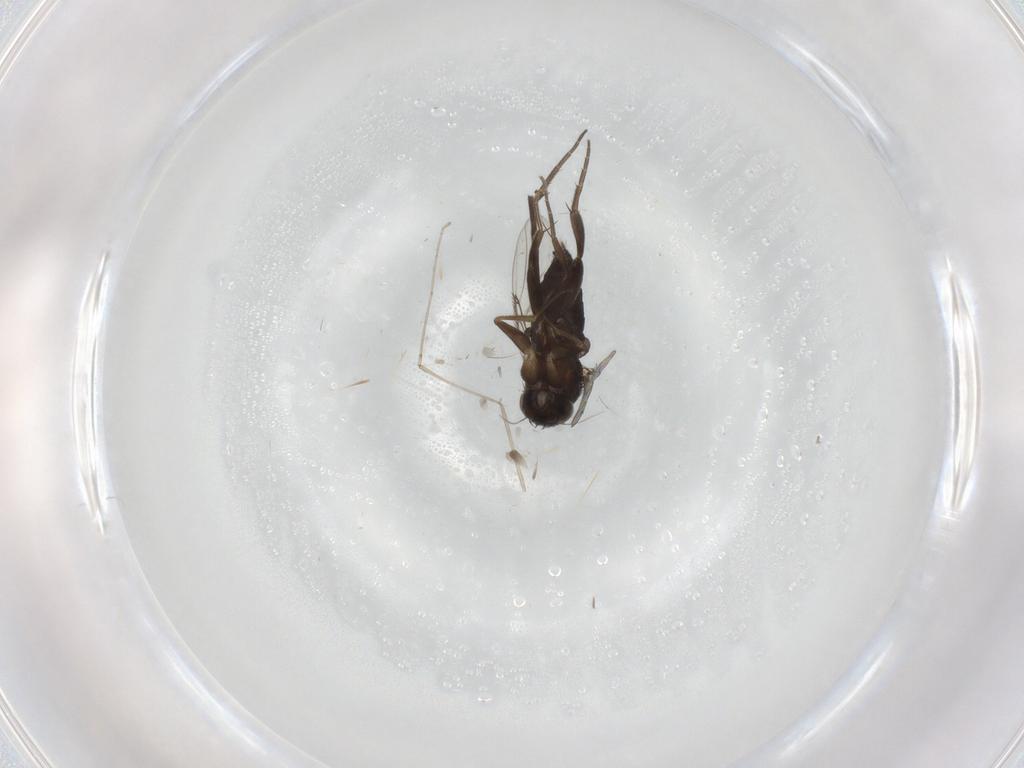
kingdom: Animalia
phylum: Arthropoda
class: Insecta
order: Diptera
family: Phoridae
